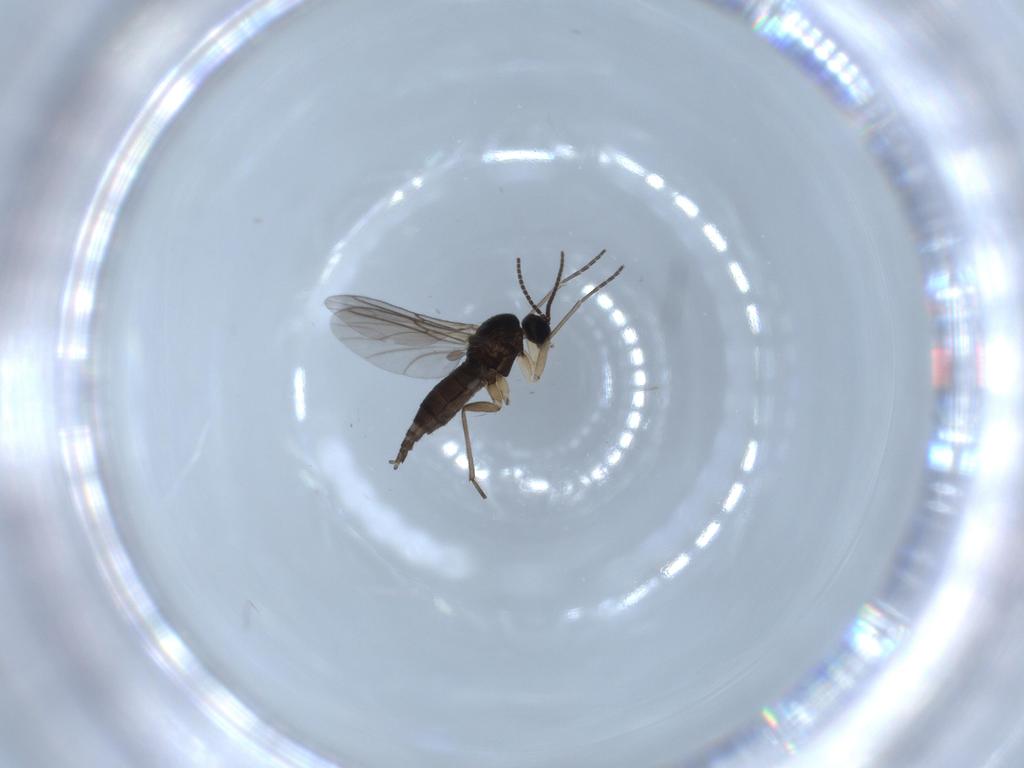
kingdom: Animalia
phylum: Arthropoda
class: Insecta
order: Diptera
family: Sciaridae
